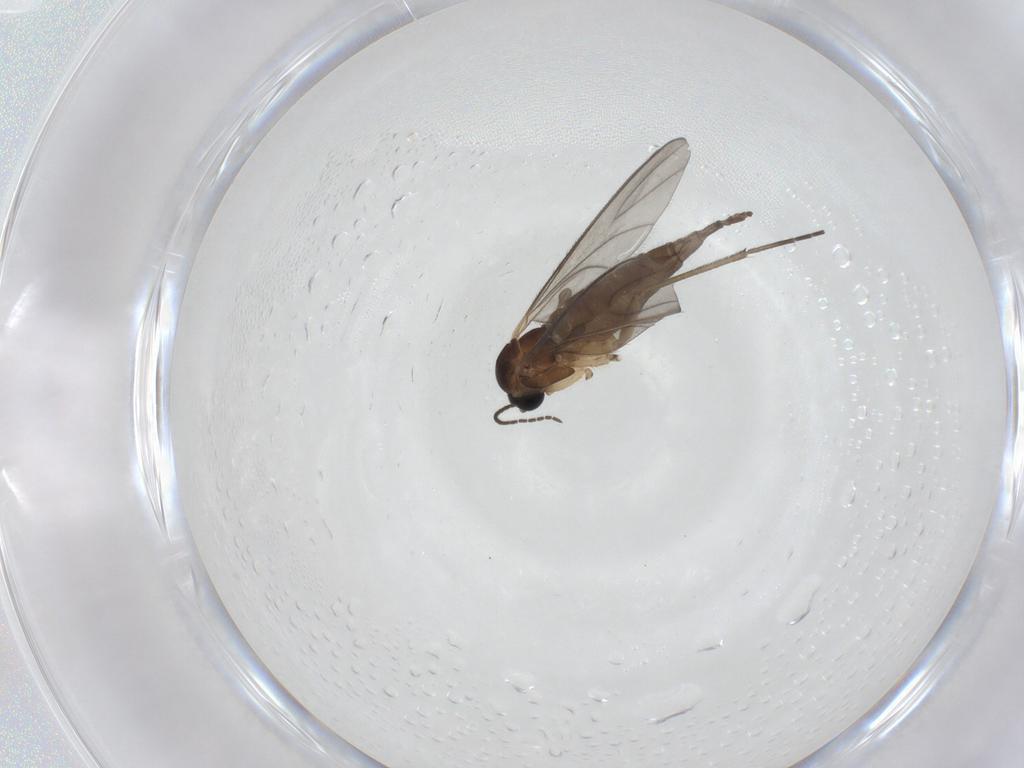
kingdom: Animalia
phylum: Arthropoda
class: Insecta
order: Diptera
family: Sciaridae
